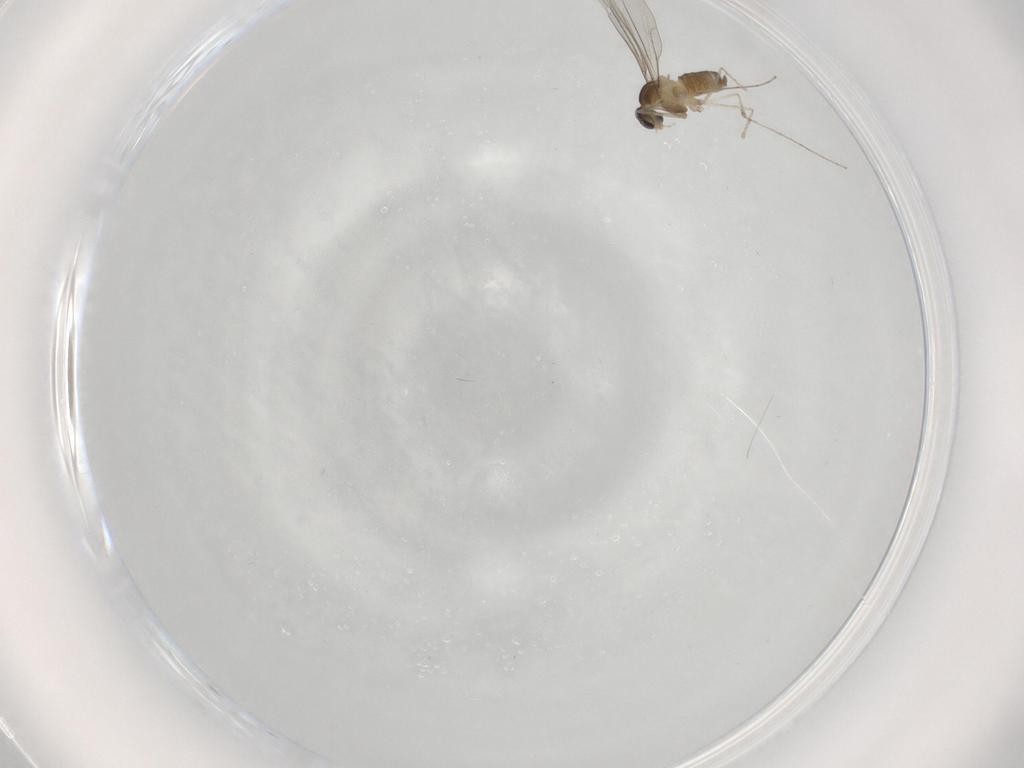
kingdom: Animalia
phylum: Arthropoda
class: Insecta
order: Diptera
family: Cecidomyiidae
